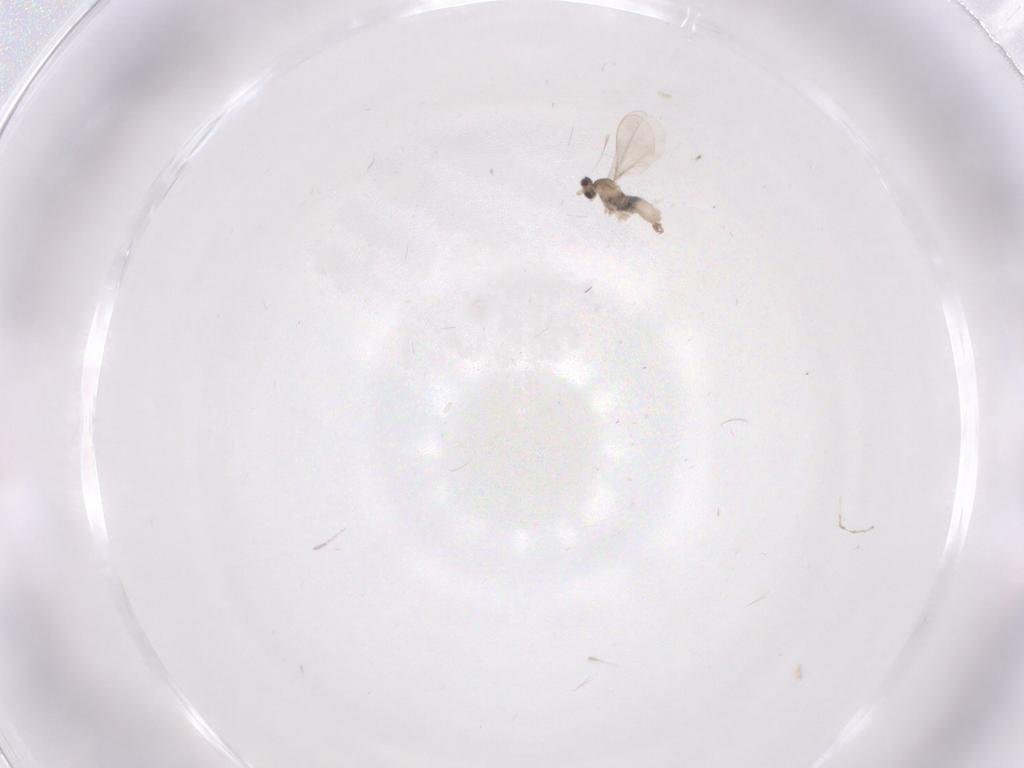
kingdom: Animalia
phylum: Arthropoda
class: Insecta
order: Diptera
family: Cecidomyiidae
